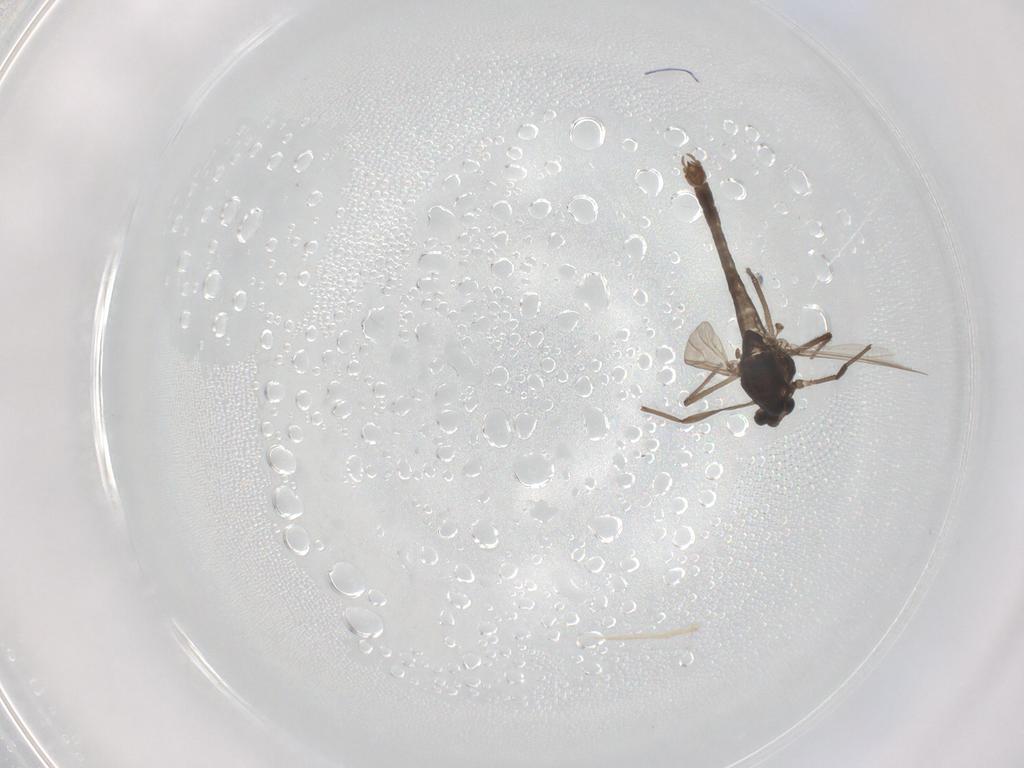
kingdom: Animalia
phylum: Arthropoda
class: Insecta
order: Diptera
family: Chironomidae
